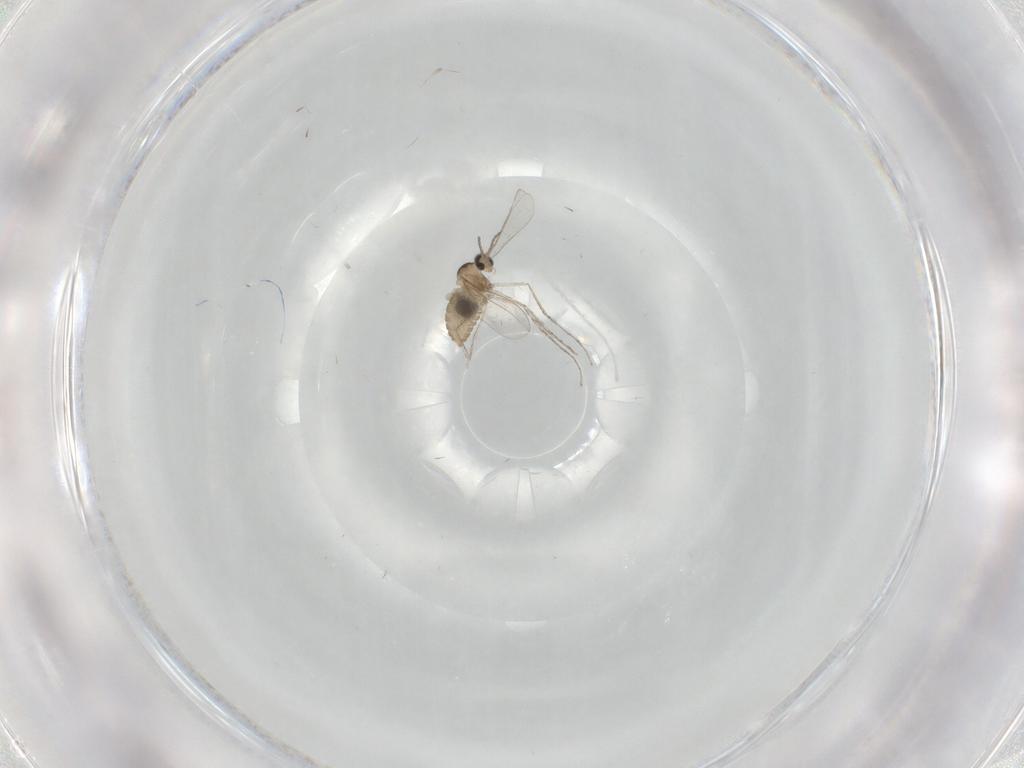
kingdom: Animalia
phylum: Arthropoda
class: Insecta
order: Diptera
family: Cecidomyiidae
